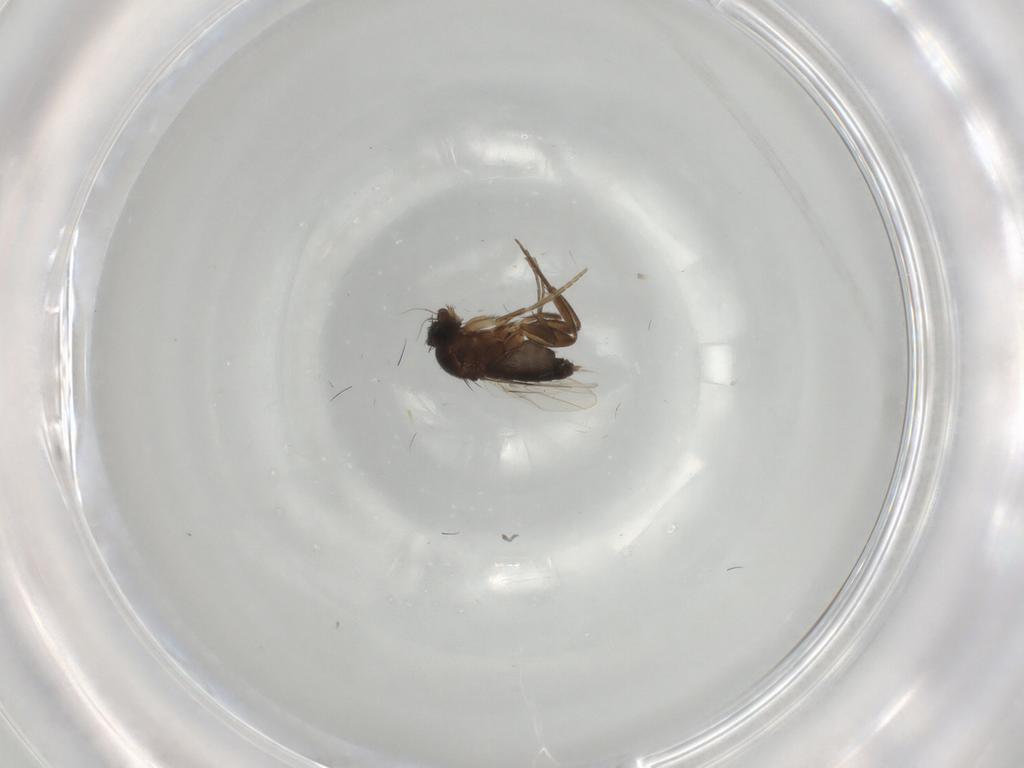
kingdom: Animalia
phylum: Arthropoda
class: Insecta
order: Diptera
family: Phoridae
